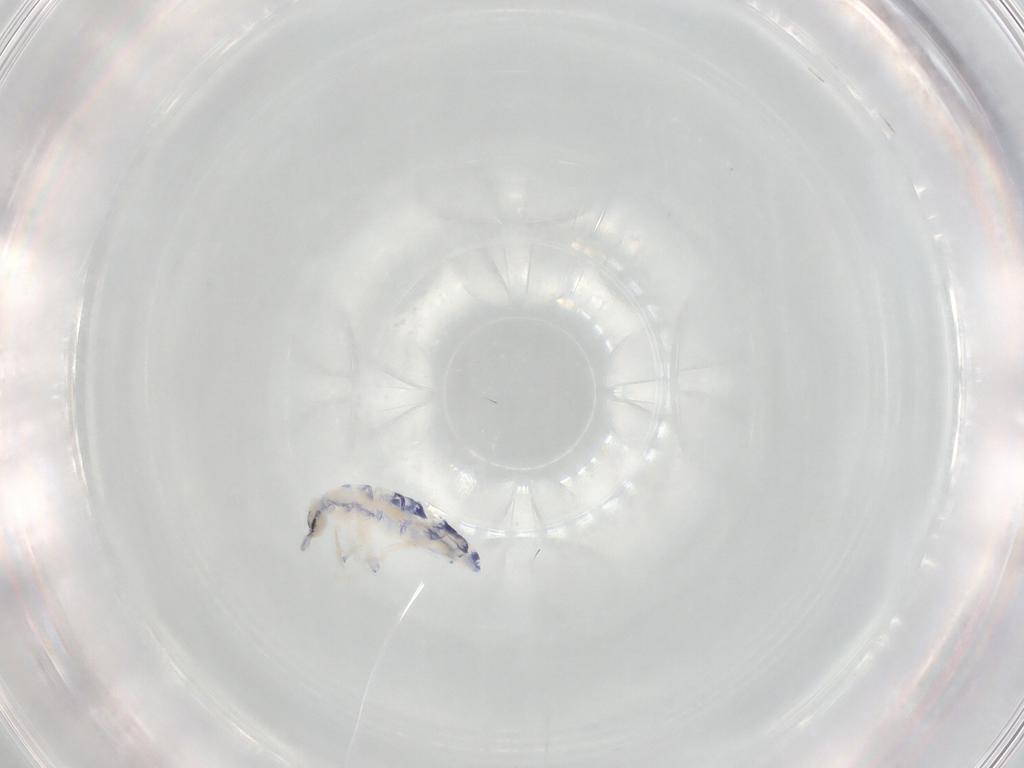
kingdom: Animalia
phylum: Arthropoda
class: Collembola
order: Entomobryomorpha
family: Entomobryidae
